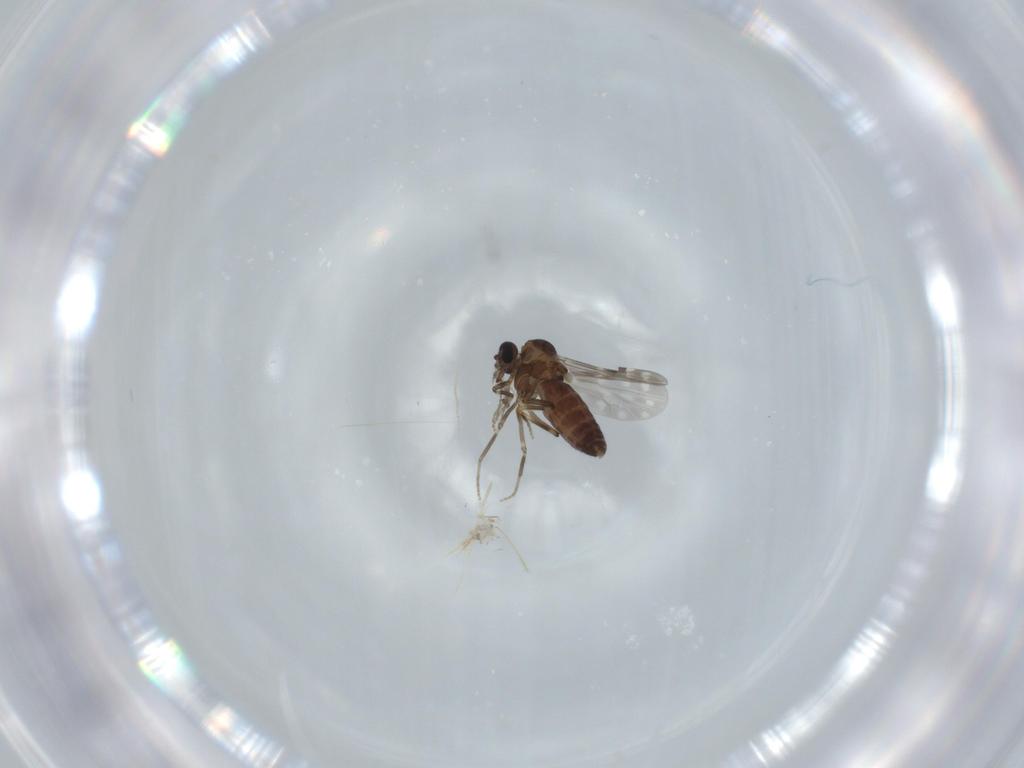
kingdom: Animalia
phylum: Arthropoda
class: Insecta
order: Diptera
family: Cecidomyiidae
